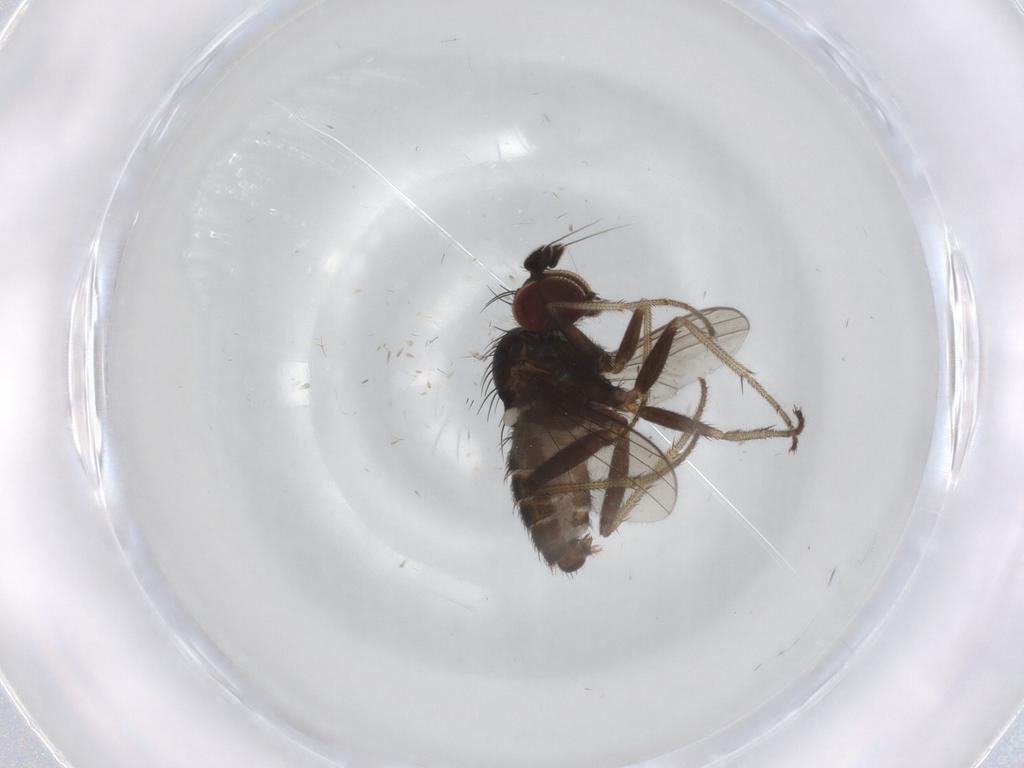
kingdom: Animalia
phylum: Arthropoda
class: Insecta
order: Diptera
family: Dolichopodidae
